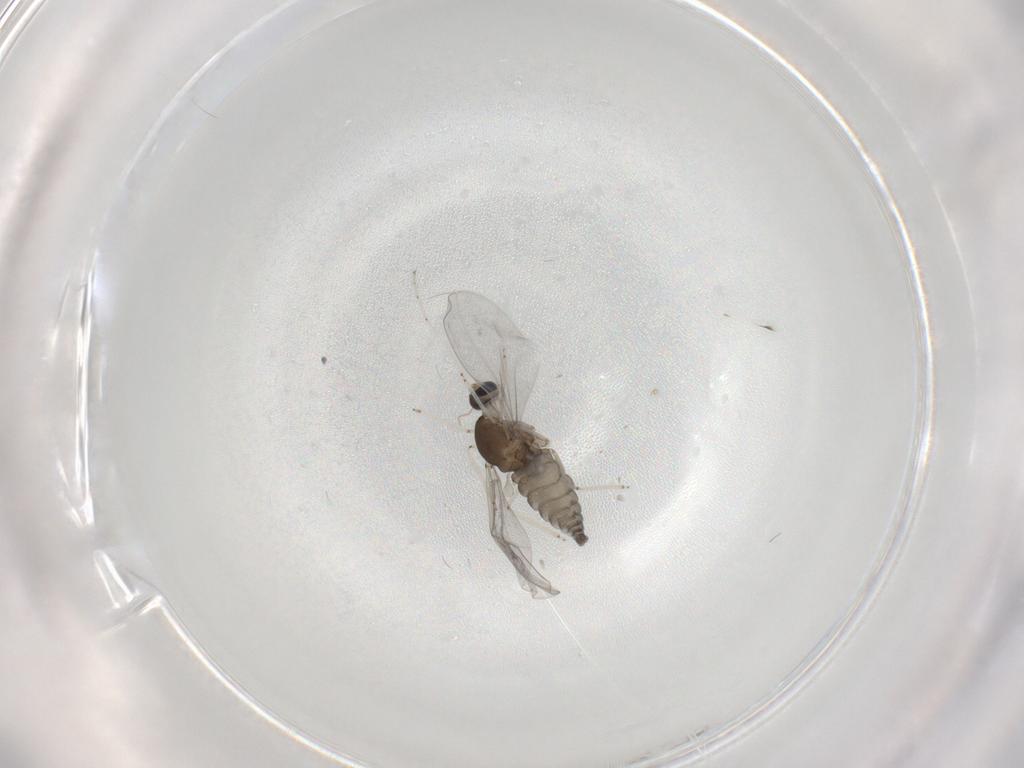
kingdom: Animalia
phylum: Arthropoda
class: Insecta
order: Diptera
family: Cecidomyiidae
